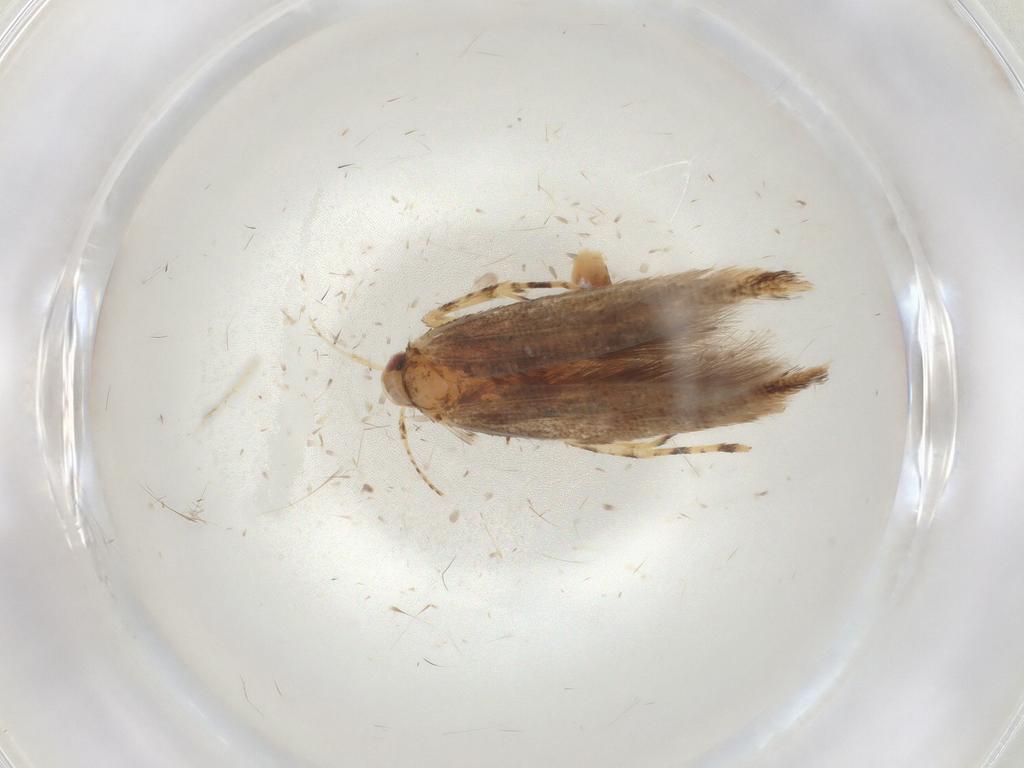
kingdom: Animalia
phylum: Arthropoda
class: Insecta
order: Lepidoptera
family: Cosmopterigidae
